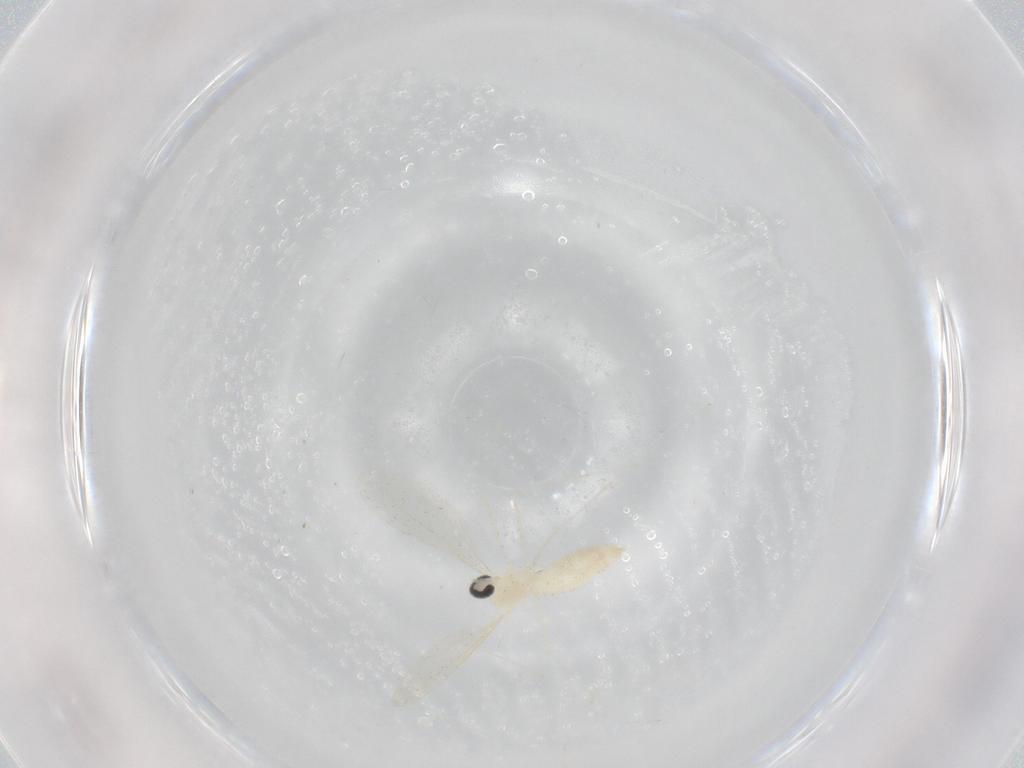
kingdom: Animalia
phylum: Arthropoda
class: Insecta
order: Diptera
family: Cecidomyiidae
